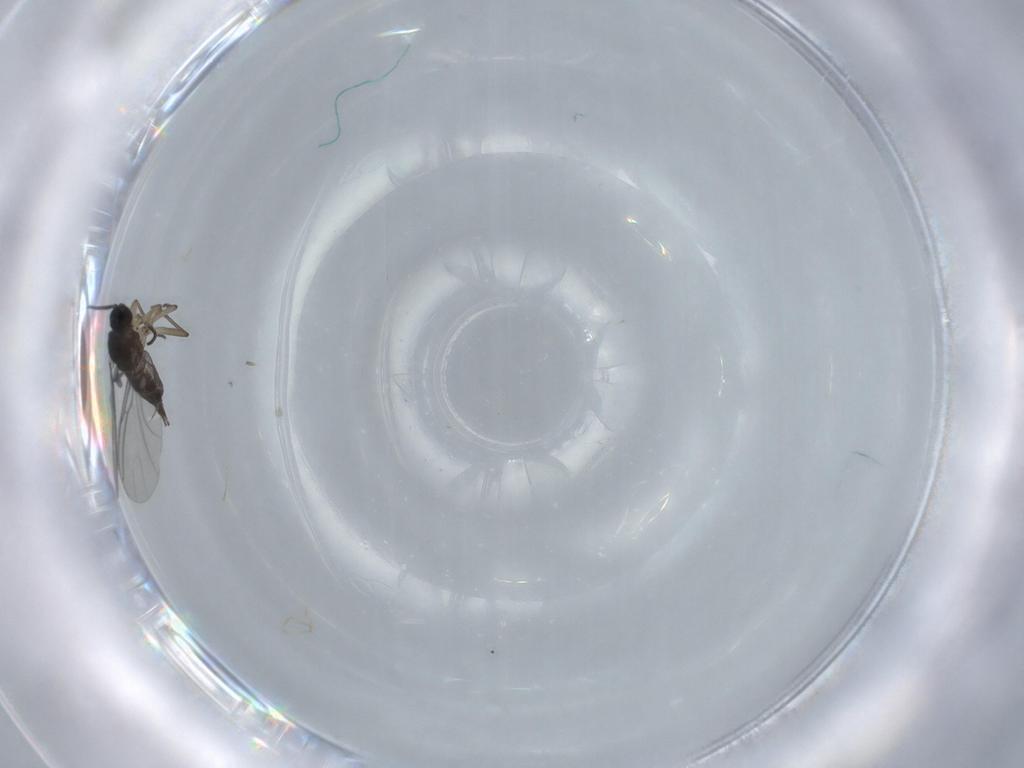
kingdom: Animalia
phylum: Arthropoda
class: Insecta
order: Diptera
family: Sciaridae
